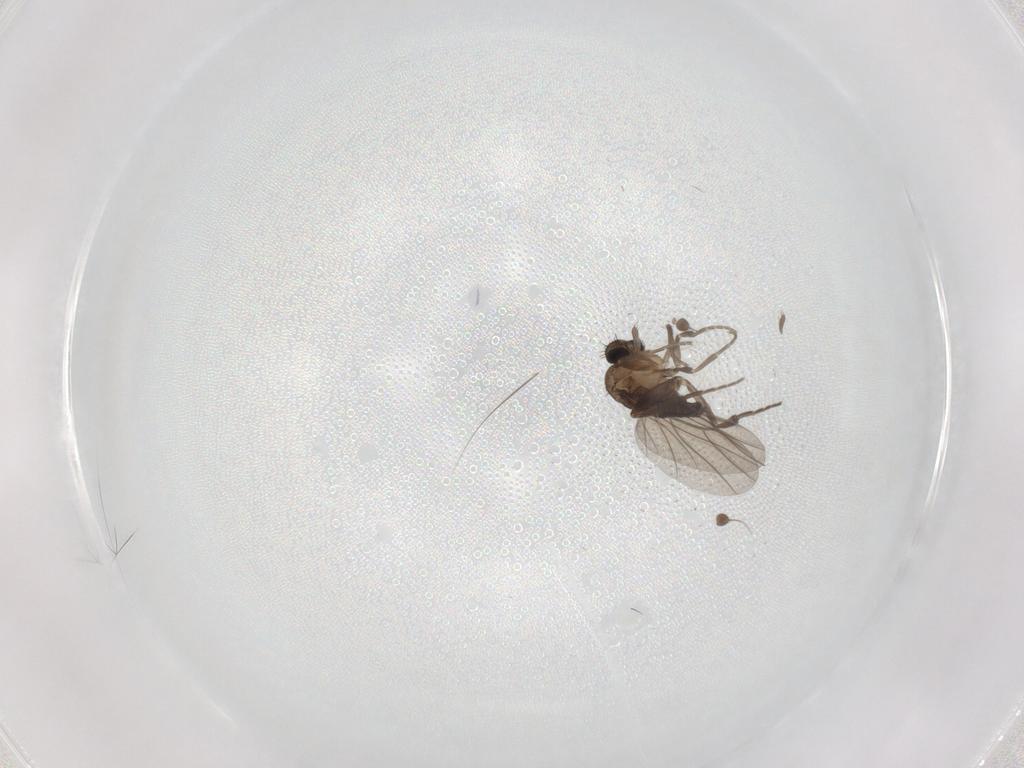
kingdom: Animalia
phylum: Arthropoda
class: Insecta
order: Diptera
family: Phoridae
